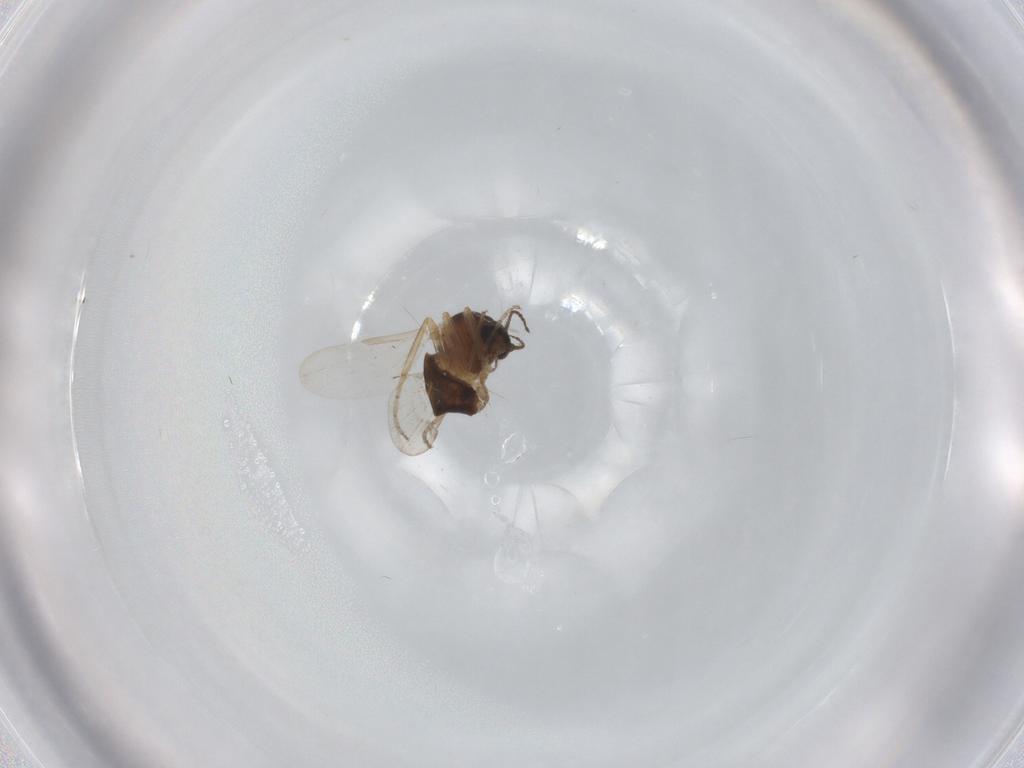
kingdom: Animalia
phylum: Arthropoda
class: Insecta
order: Diptera
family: Ceratopogonidae
